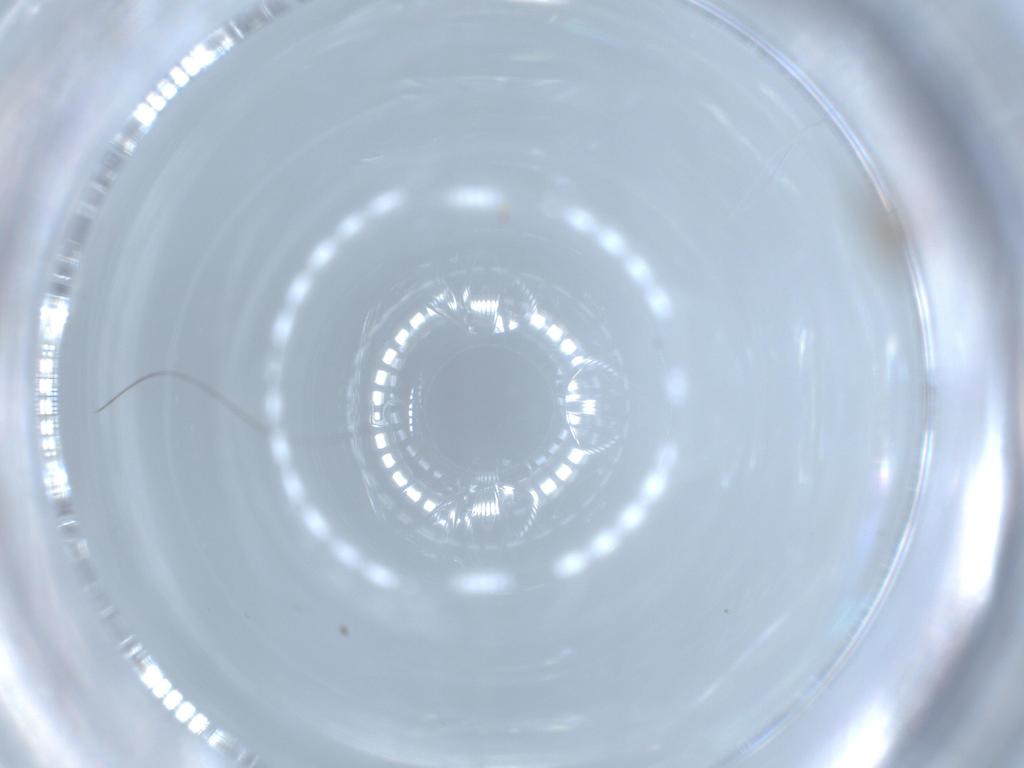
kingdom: Animalia
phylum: Arthropoda
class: Insecta
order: Diptera
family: Cecidomyiidae
